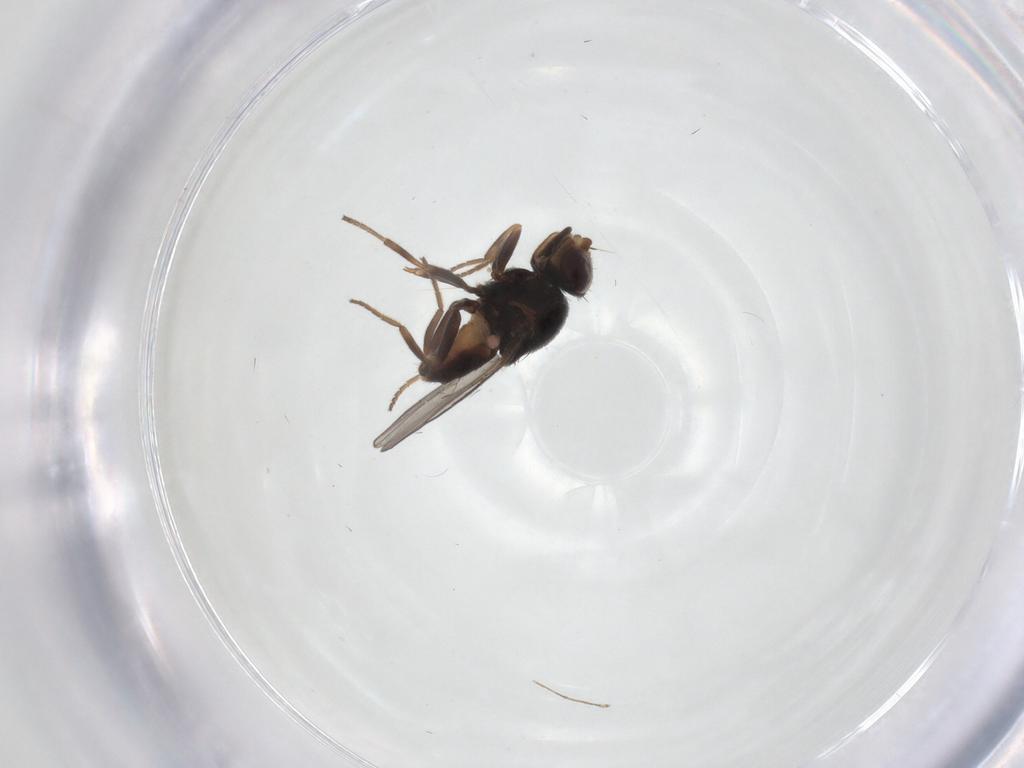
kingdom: Animalia
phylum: Arthropoda
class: Insecta
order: Diptera
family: Chloropidae
